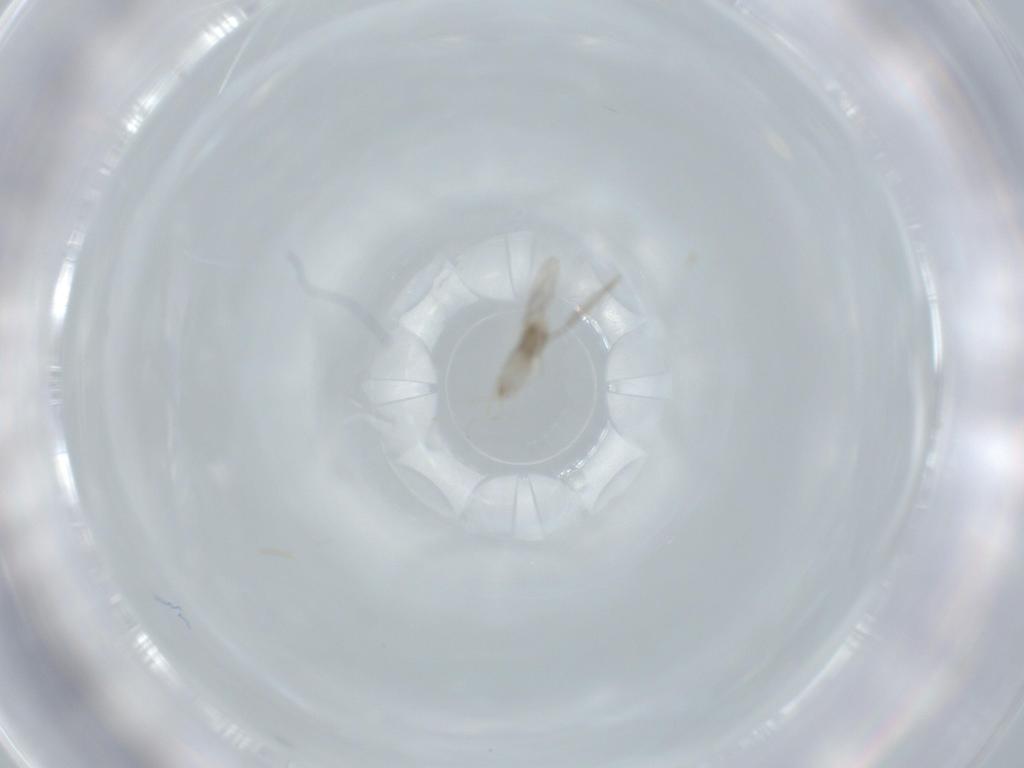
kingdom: Animalia
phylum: Arthropoda
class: Insecta
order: Diptera
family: Cecidomyiidae
